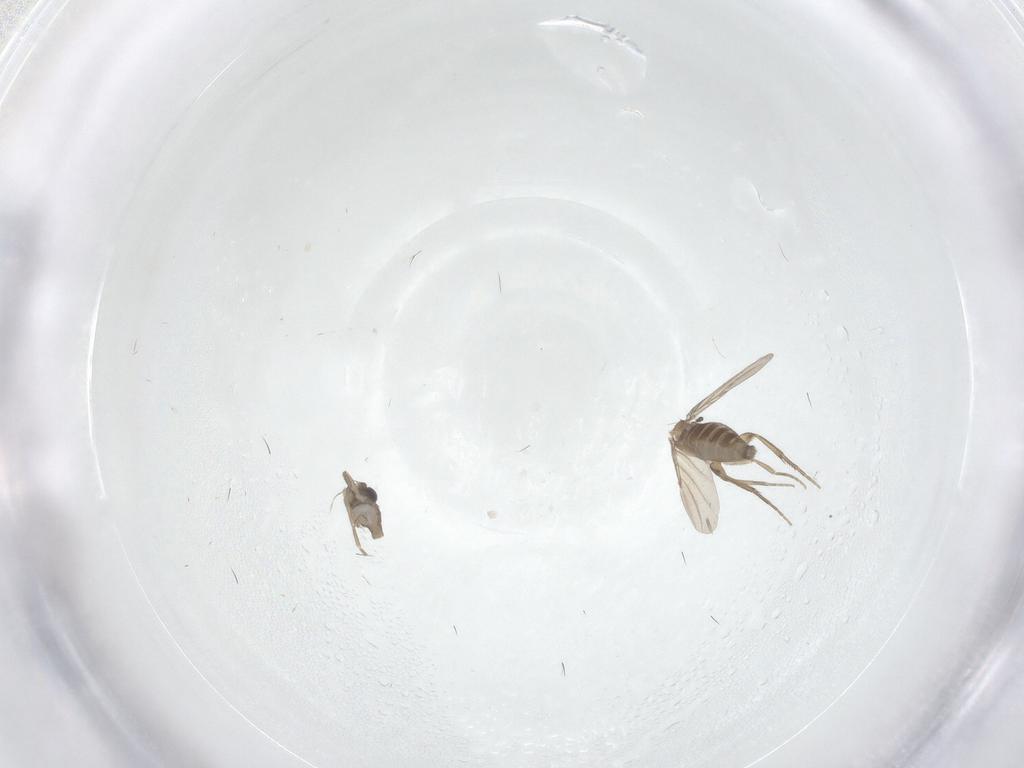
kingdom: Animalia
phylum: Arthropoda
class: Insecta
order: Diptera
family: Phoridae
